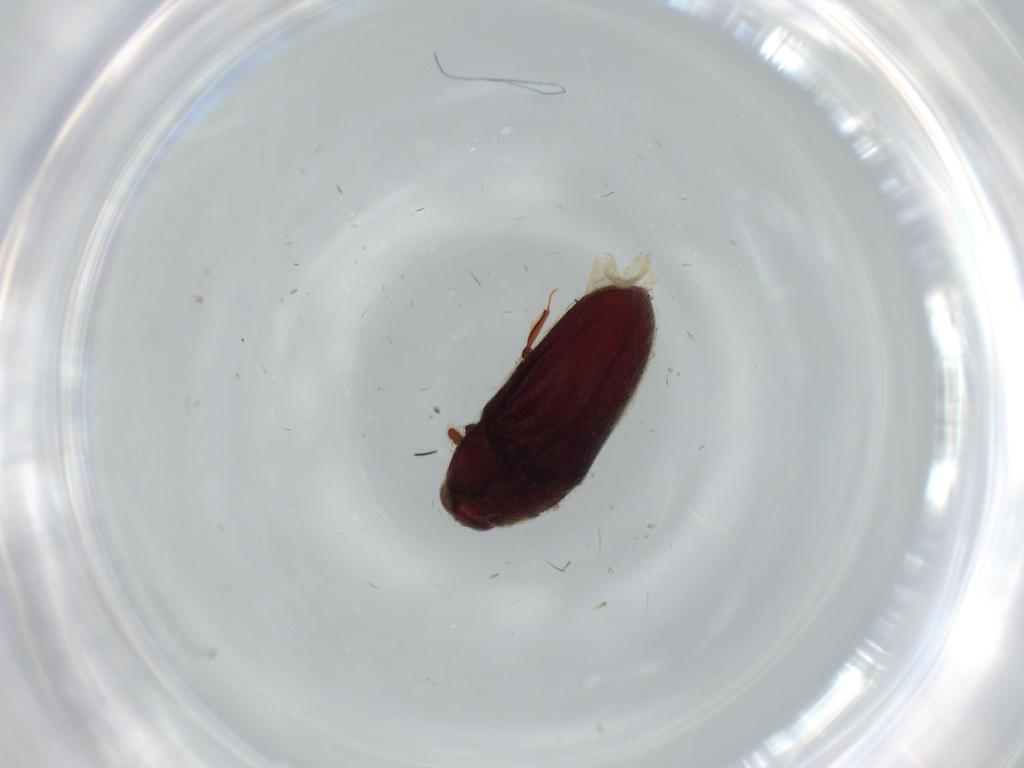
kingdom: Animalia
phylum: Arthropoda
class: Insecta
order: Coleoptera
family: Throscidae
